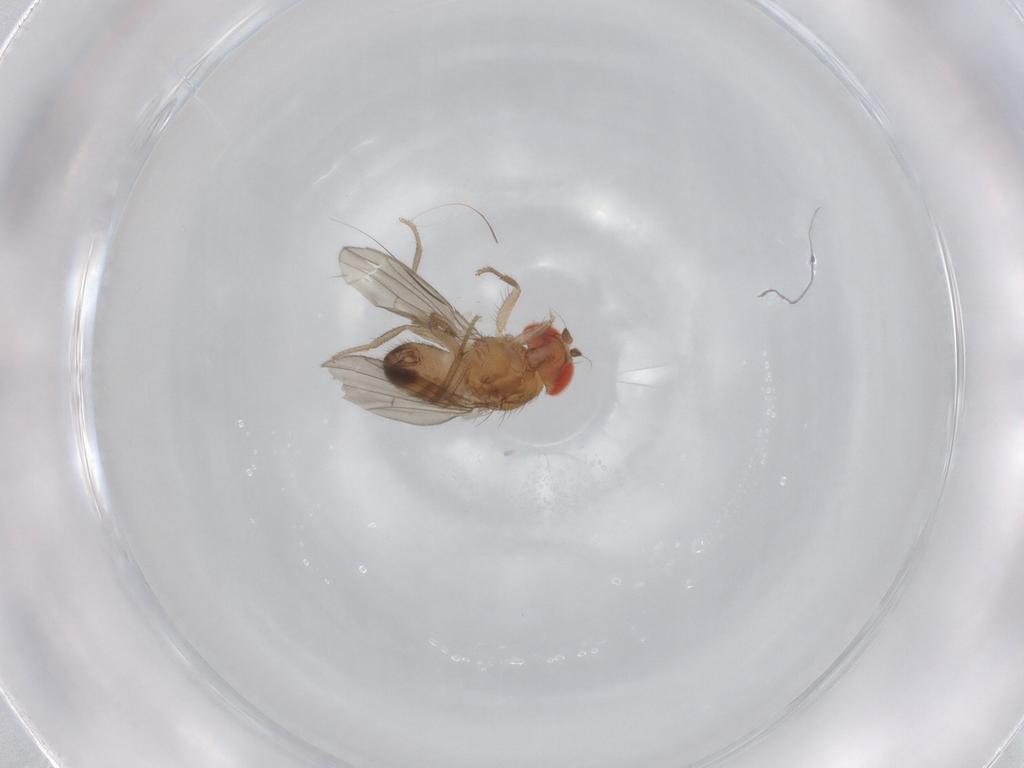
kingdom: Animalia
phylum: Arthropoda
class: Insecta
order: Diptera
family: Drosophilidae
